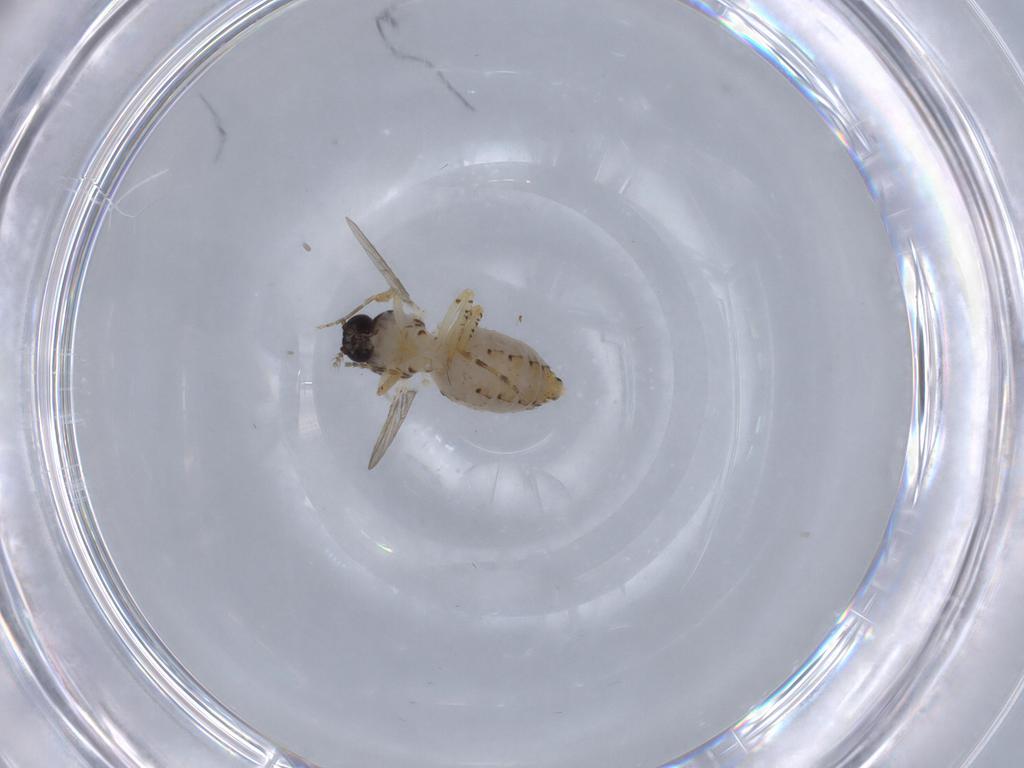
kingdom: Animalia
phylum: Arthropoda
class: Insecta
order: Diptera
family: Ceratopogonidae
